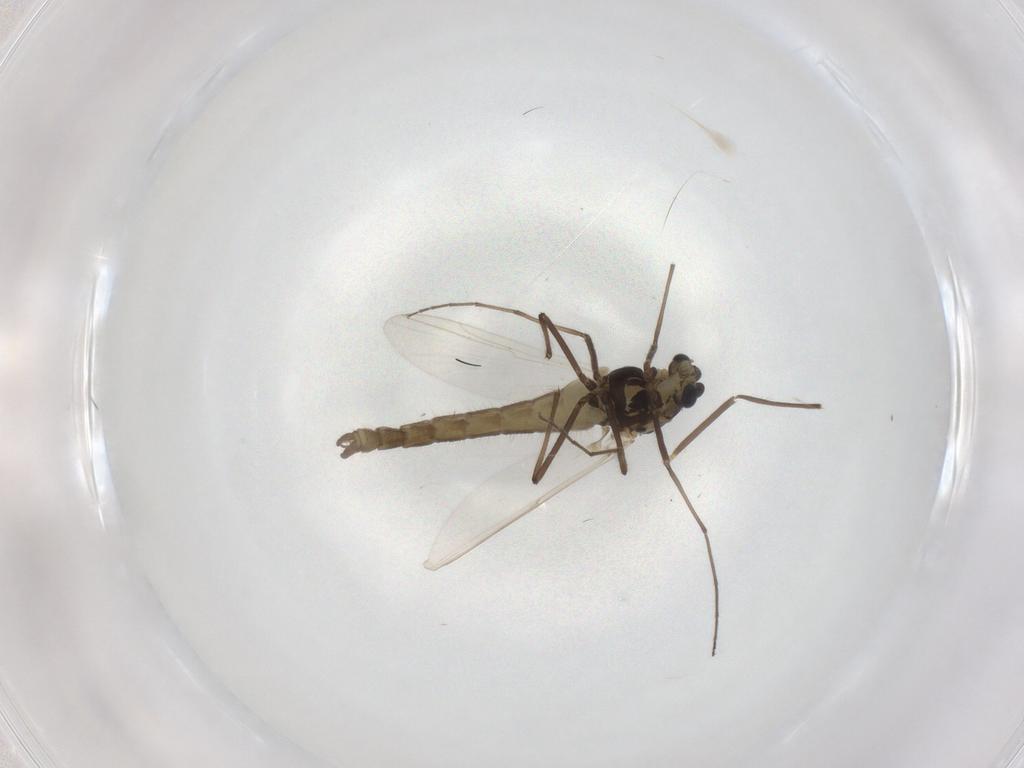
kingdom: Animalia
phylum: Arthropoda
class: Insecta
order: Diptera
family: Chironomidae
